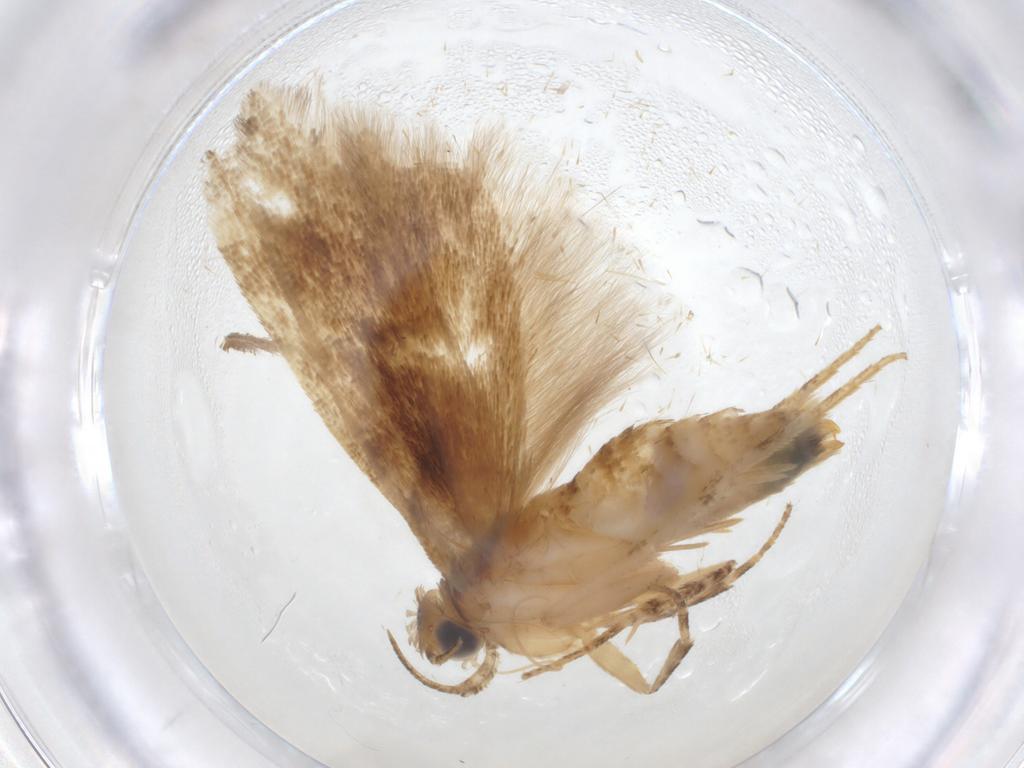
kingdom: Animalia
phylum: Arthropoda
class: Insecta
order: Lepidoptera
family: Gelechiidae
